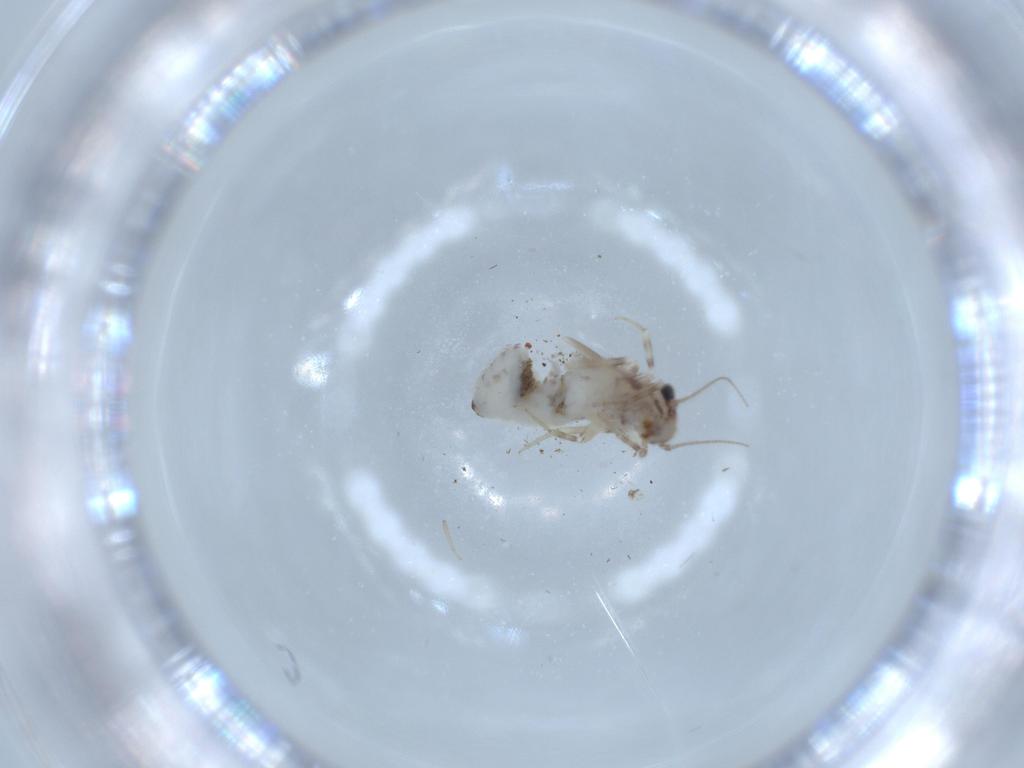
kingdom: Animalia
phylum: Arthropoda
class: Insecta
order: Psocodea
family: Lepidopsocidae
